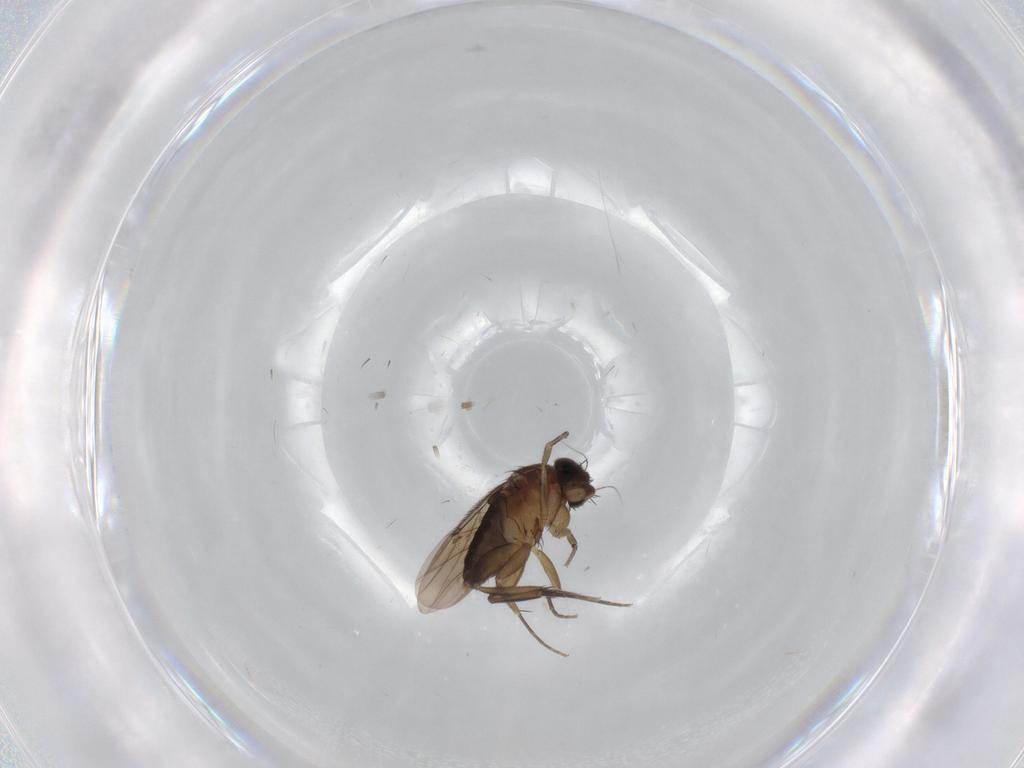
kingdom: Animalia
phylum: Arthropoda
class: Insecta
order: Diptera
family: Phoridae
